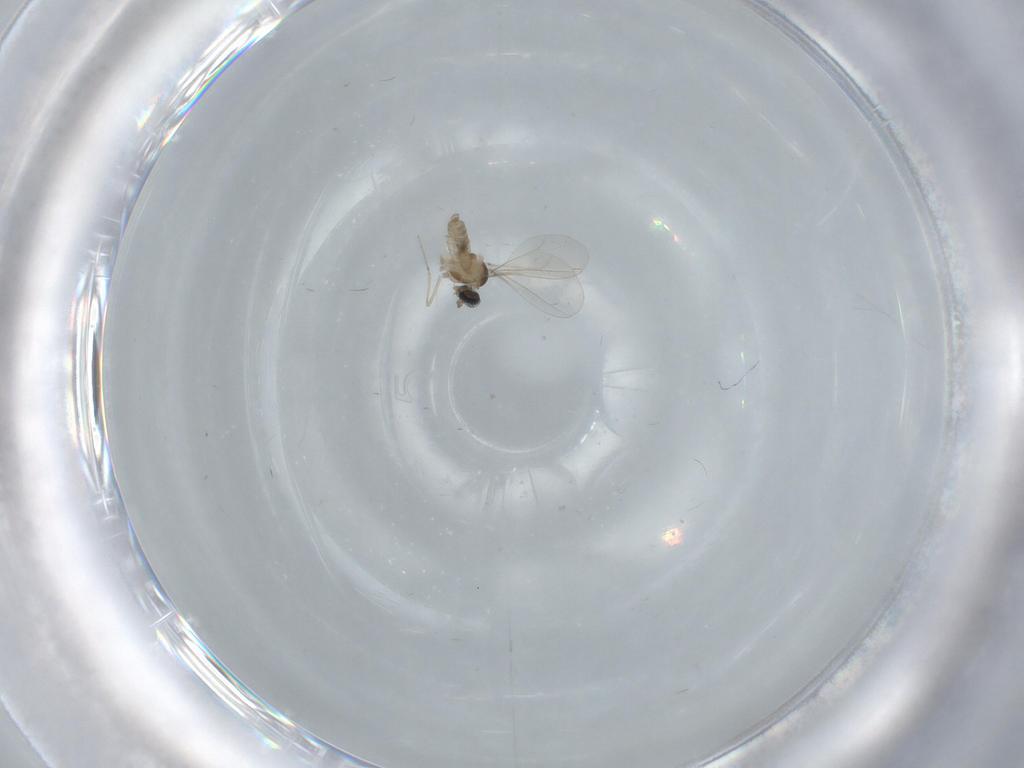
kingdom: Animalia
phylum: Arthropoda
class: Insecta
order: Diptera
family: Cecidomyiidae
